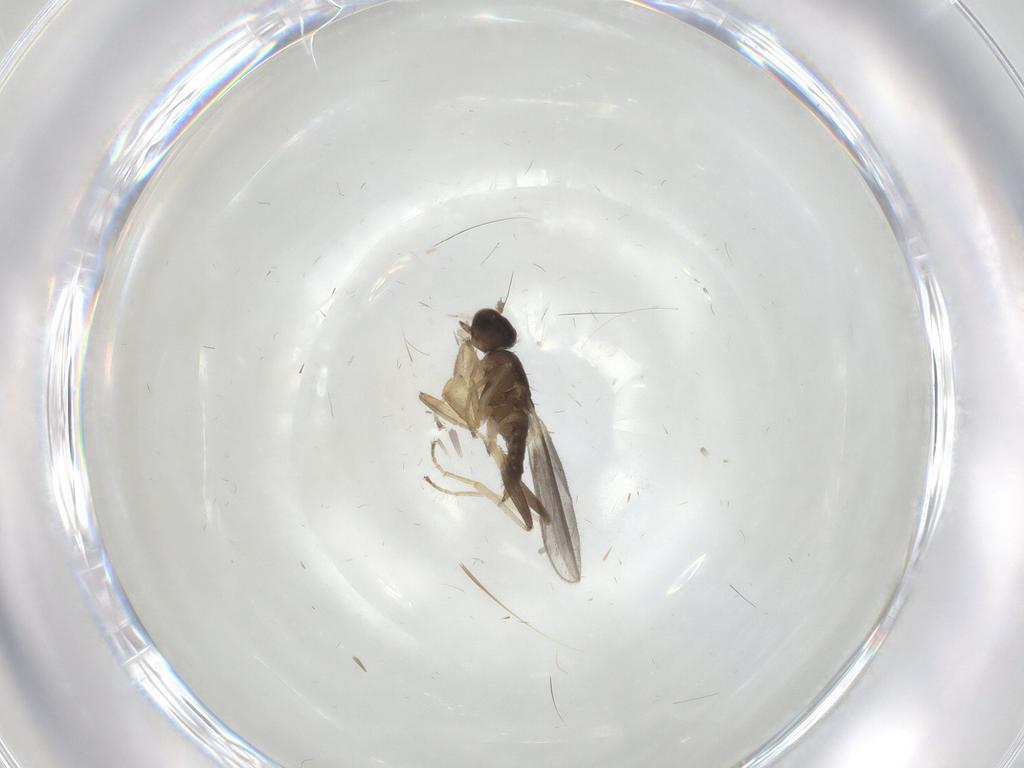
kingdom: Animalia
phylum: Arthropoda
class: Insecta
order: Diptera
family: Hybotidae
